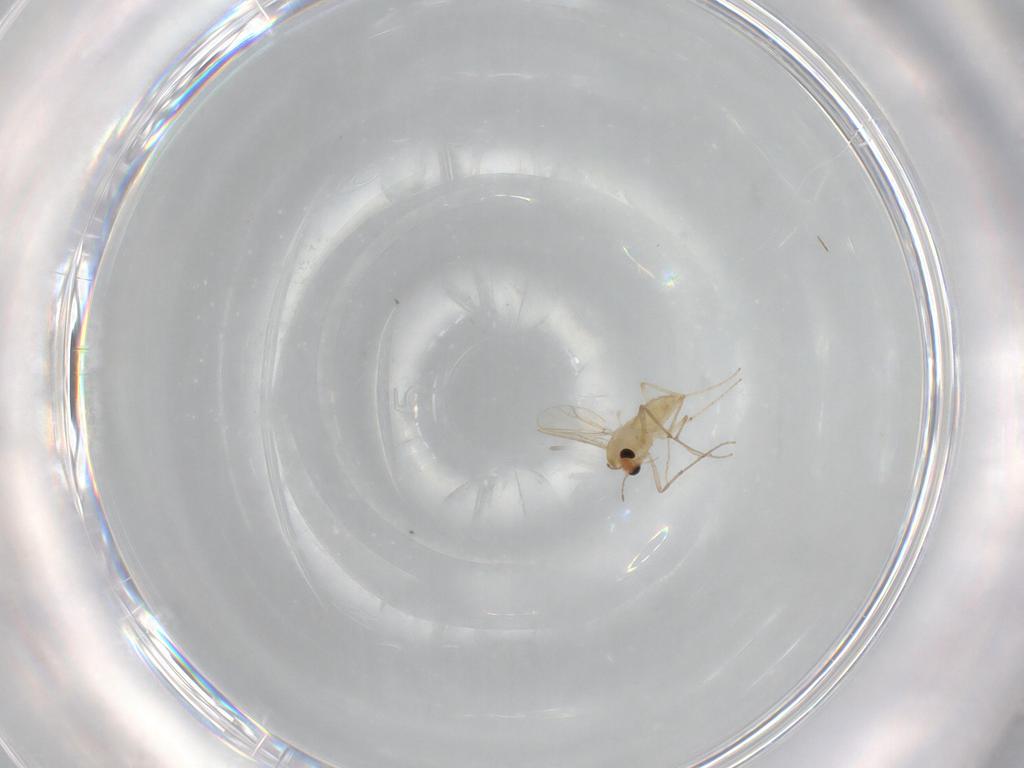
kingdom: Animalia
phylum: Arthropoda
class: Insecta
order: Diptera
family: Chironomidae
